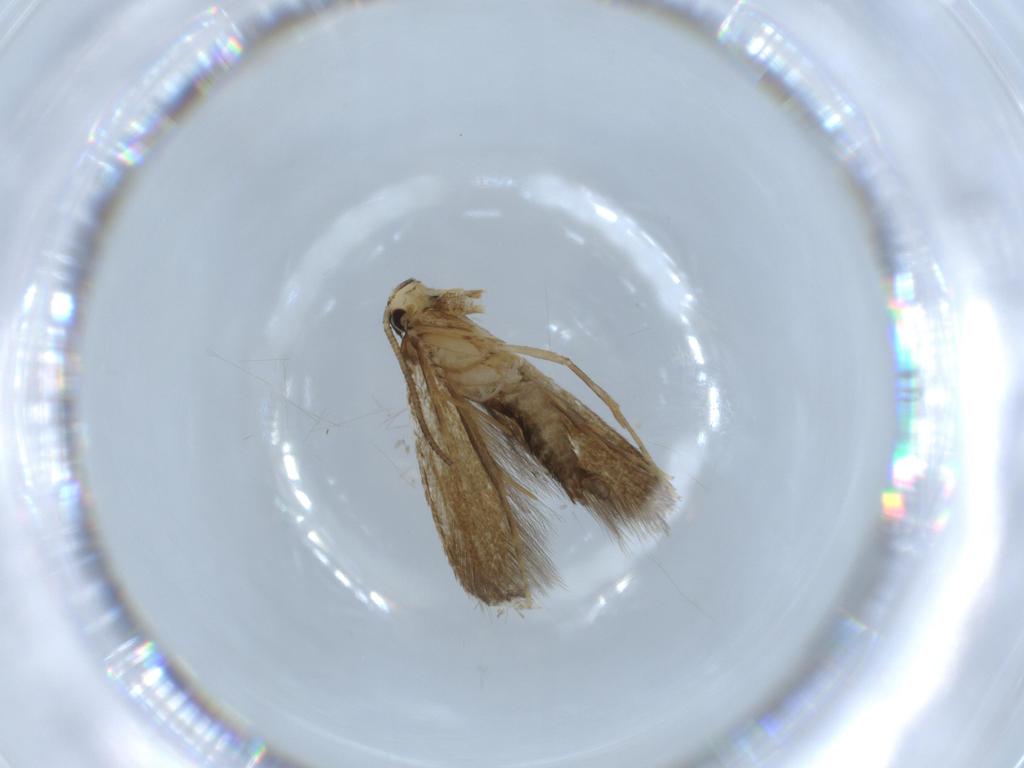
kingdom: Animalia
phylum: Arthropoda
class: Insecta
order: Lepidoptera
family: Tineidae
